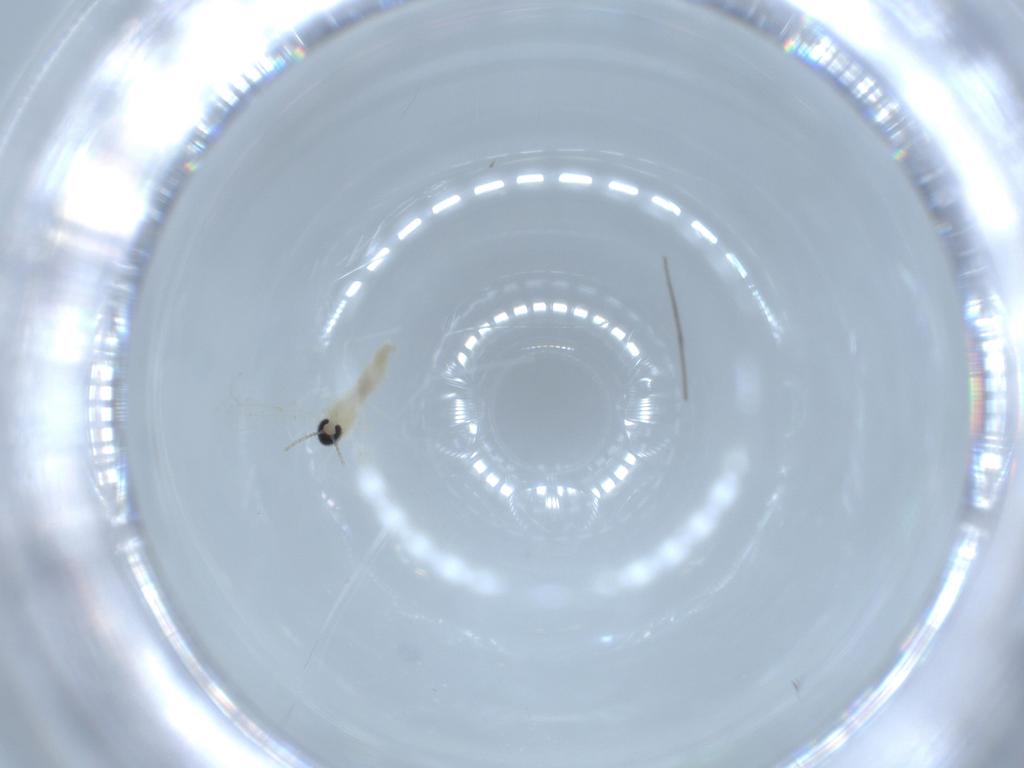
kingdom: Animalia
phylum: Arthropoda
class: Insecta
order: Diptera
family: Chironomidae
